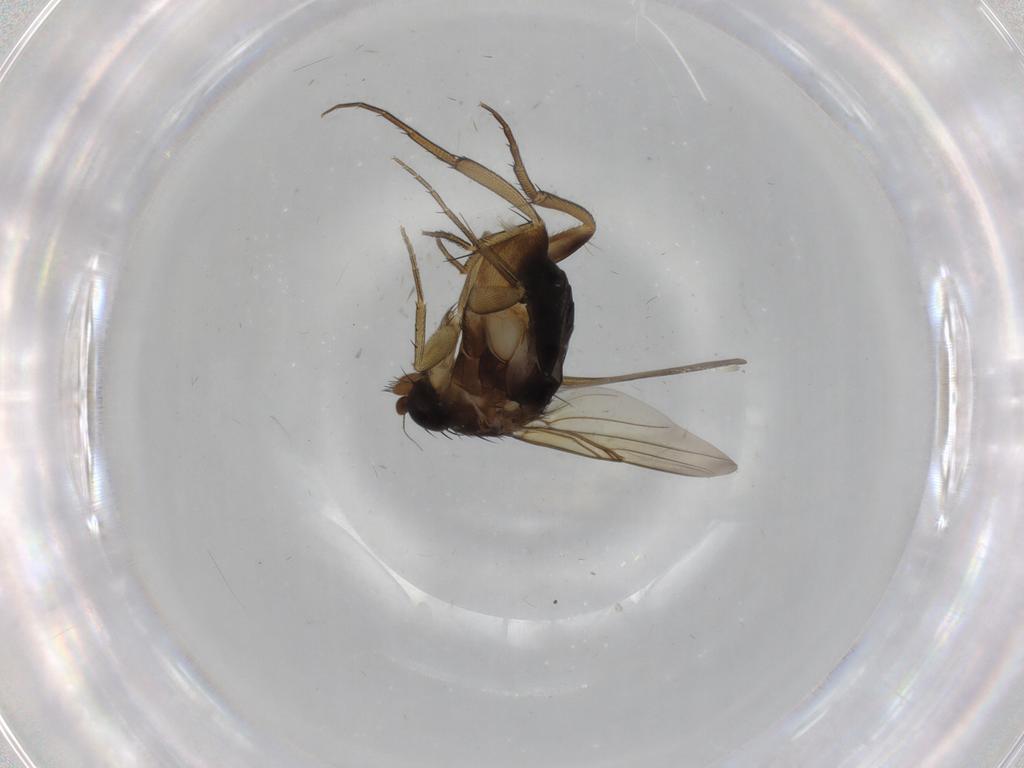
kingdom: Animalia
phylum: Arthropoda
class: Insecta
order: Diptera
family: Phoridae
